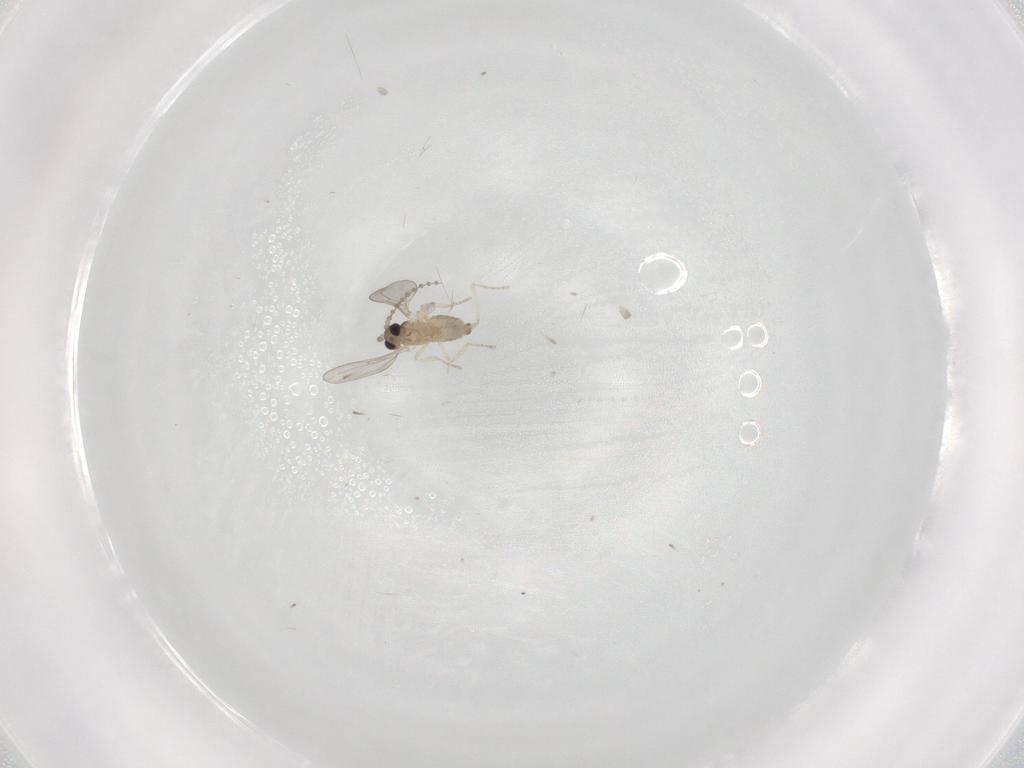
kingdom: Animalia
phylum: Arthropoda
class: Insecta
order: Diptera
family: Cecidomyiidae
